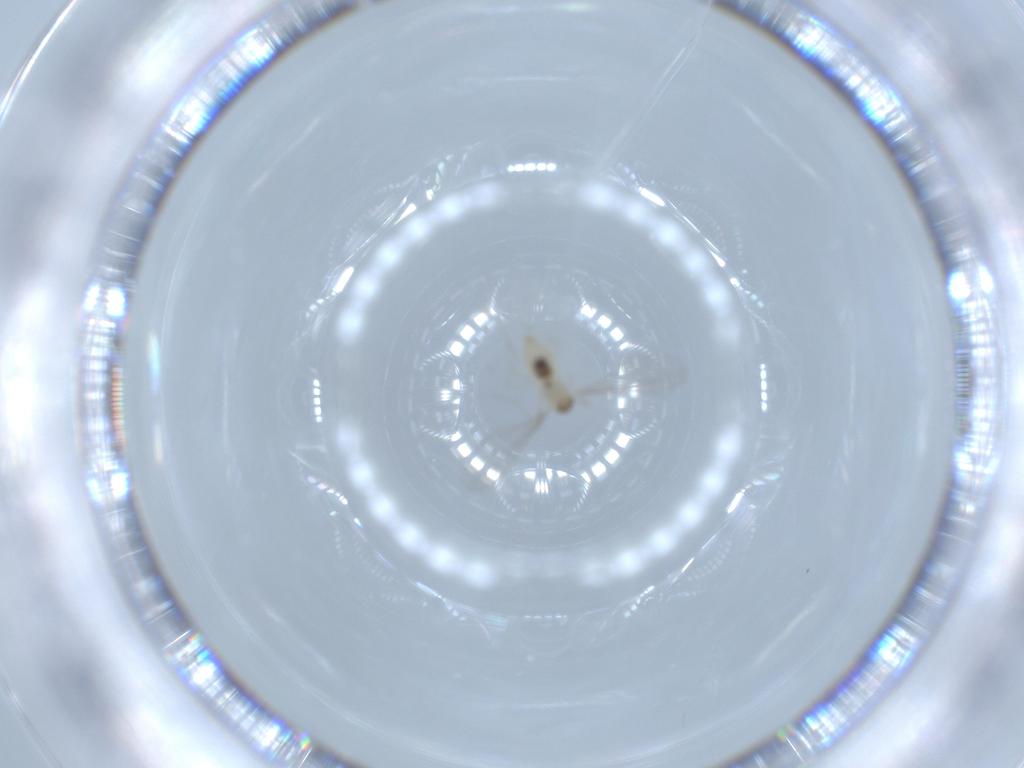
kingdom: Animalia
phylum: Arthropoda
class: Insecta
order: Diptera
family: Cecidomyiidae
